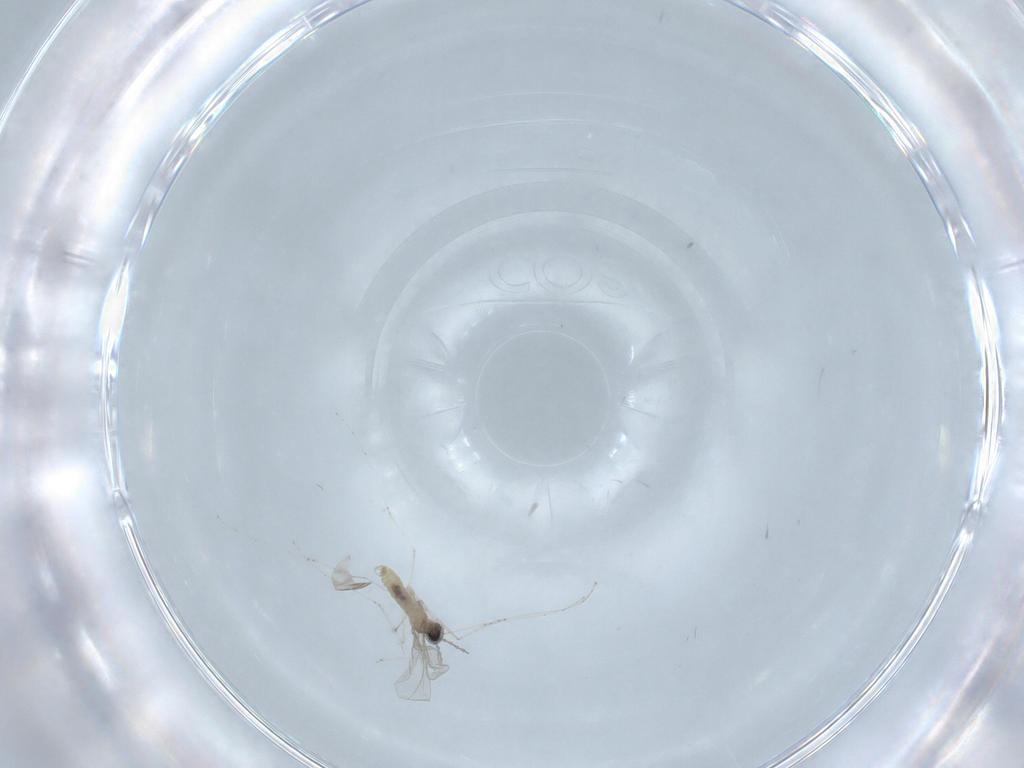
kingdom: Animalia
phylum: Arthropoda
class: Insecta
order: Diptera
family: Cecidomyiidae
